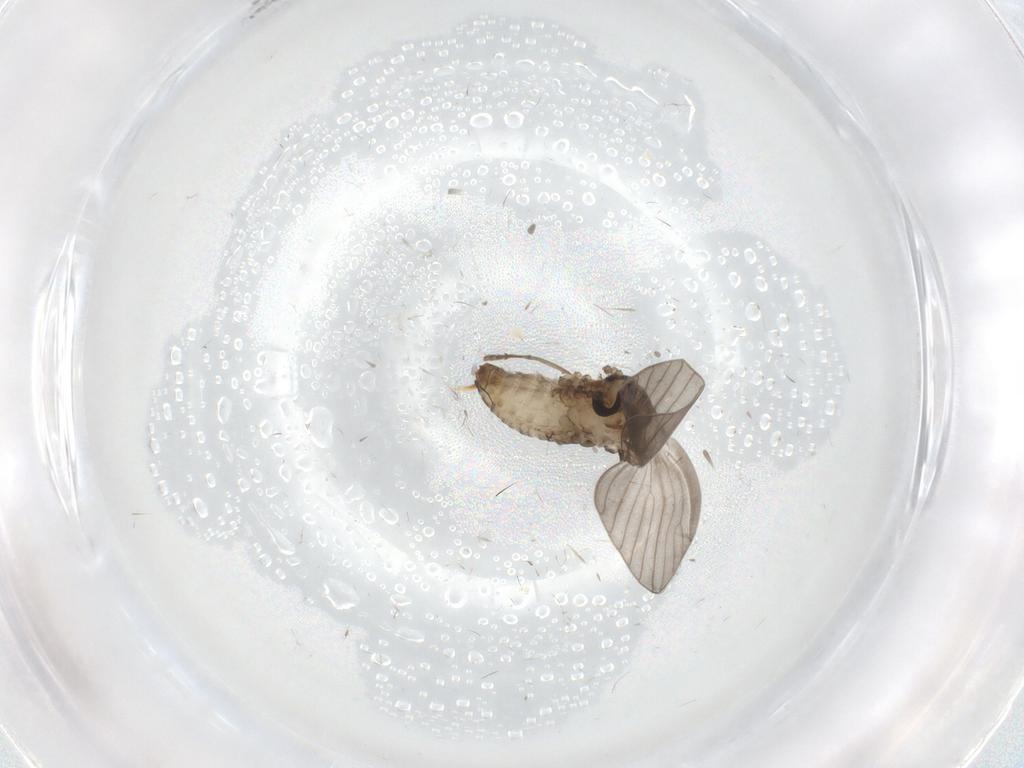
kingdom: Animalia
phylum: Arthropoda
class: Insecta
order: Diptera
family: Psychodidae
